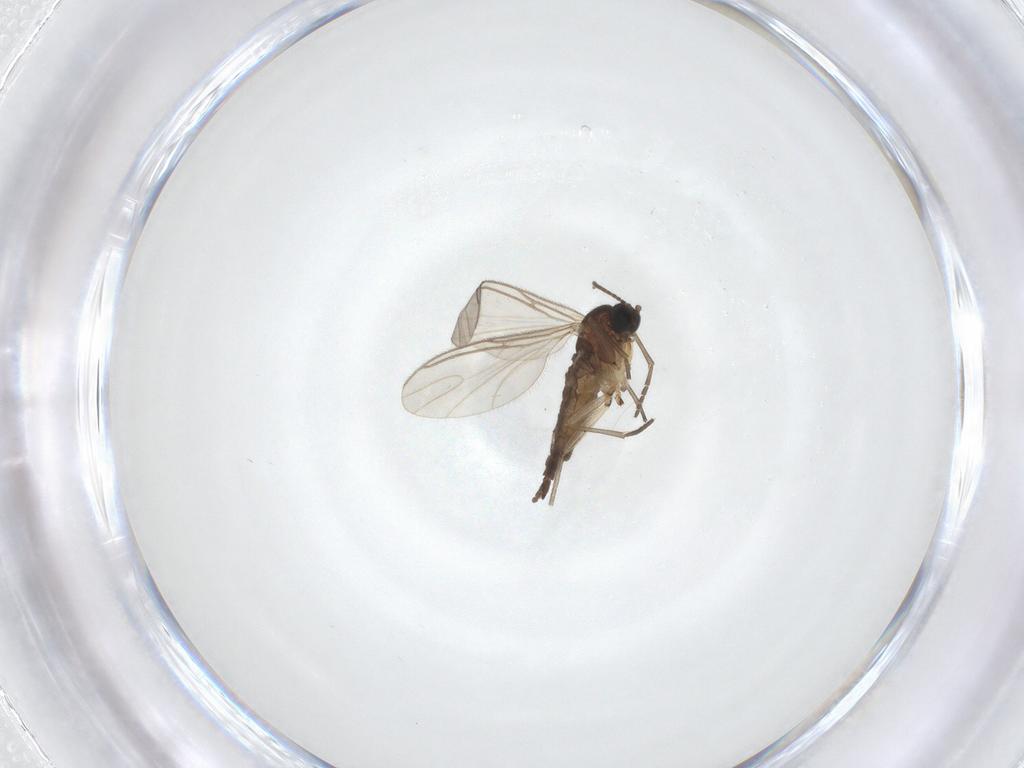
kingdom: Animalia
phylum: Arthropoda
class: Insecta
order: Diptera
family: Sciaridae
